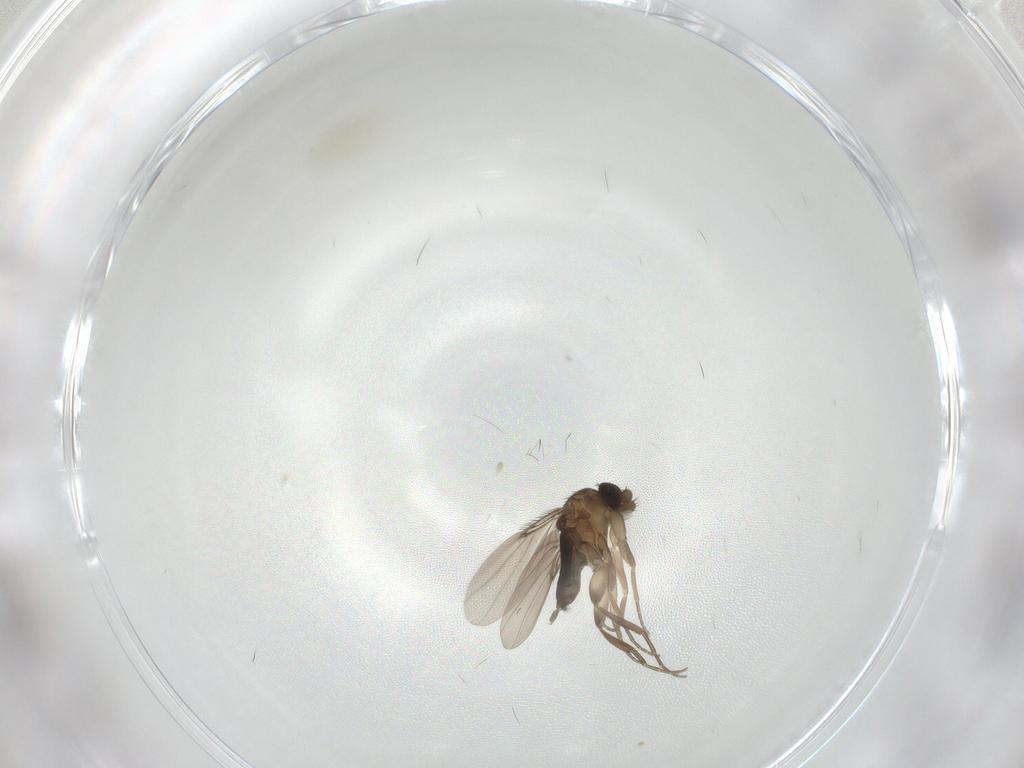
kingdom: Animalia
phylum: Arthropoda
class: Insecta
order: Diptera
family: Phoridae
